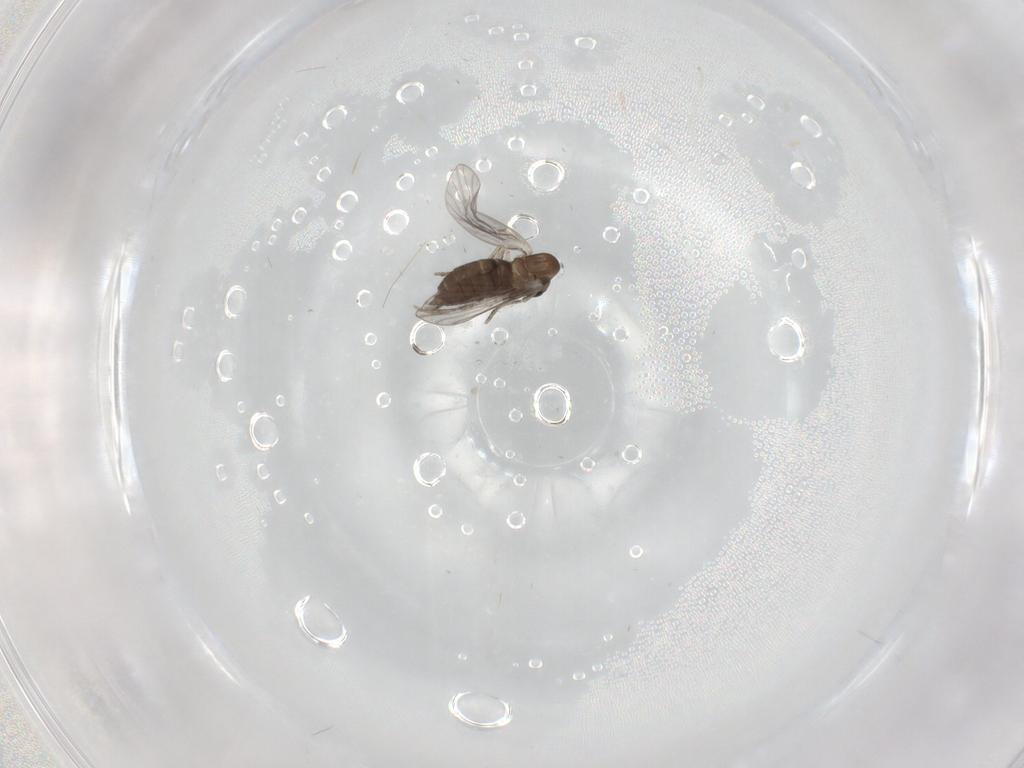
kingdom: Animalia
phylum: Arthropoda
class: Insecta
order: Diptera
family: Cecidomyiidae
